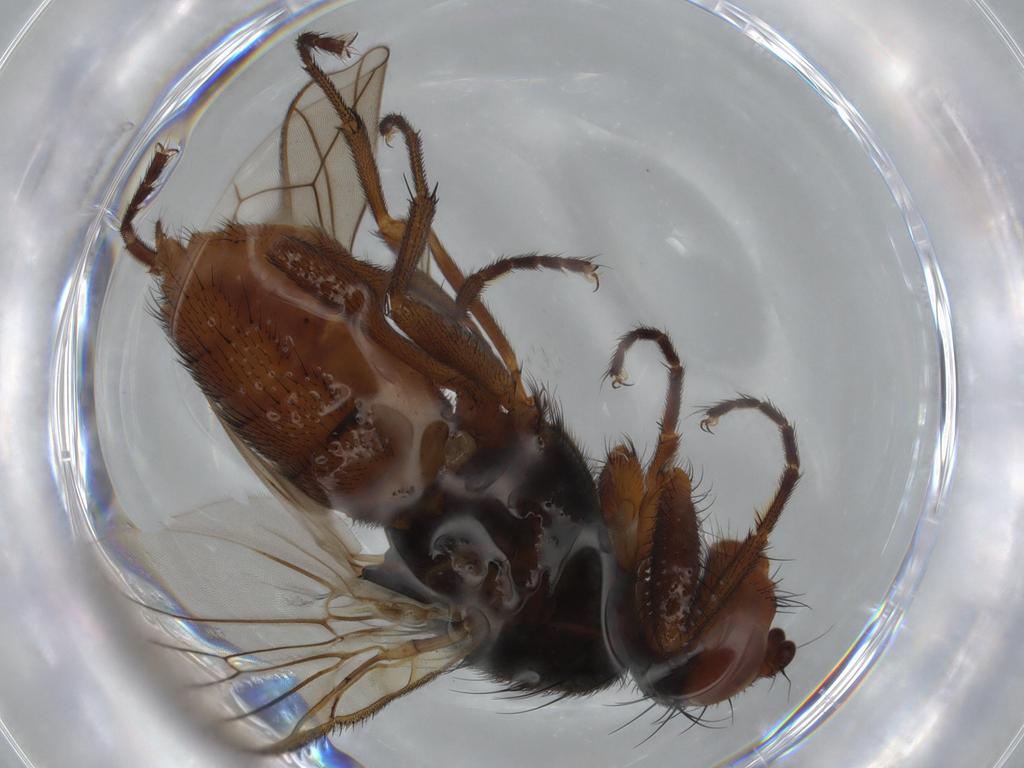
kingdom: Animalia
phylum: Arthropoda
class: Insecta
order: Diptera
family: Heleomyzidae
